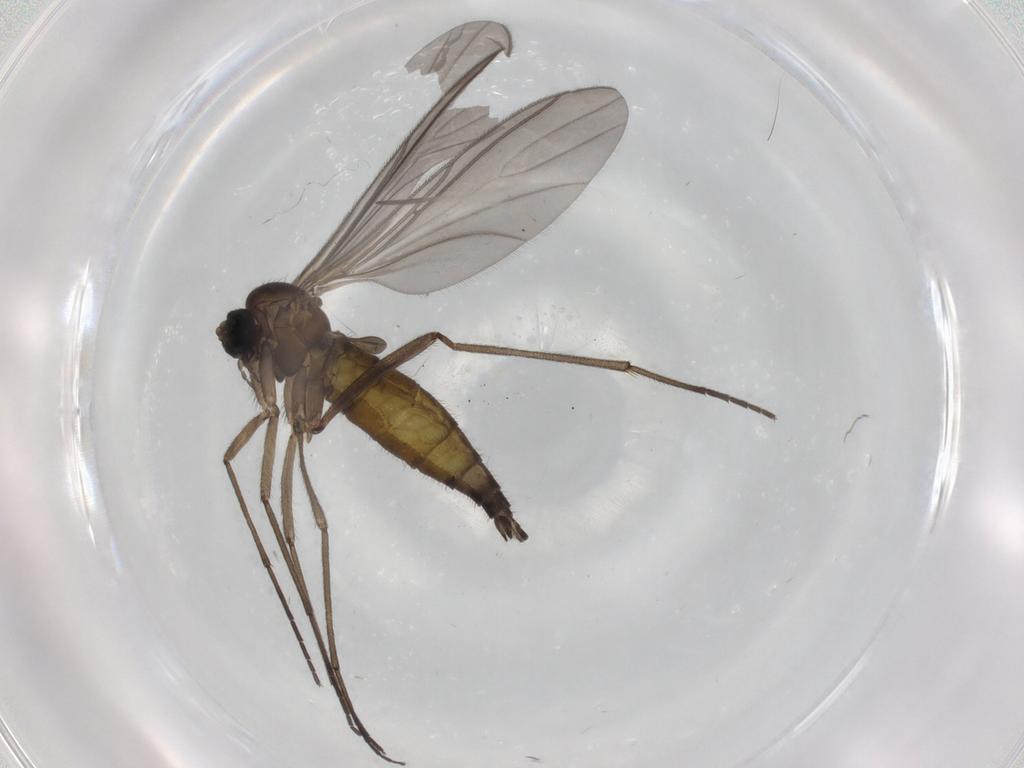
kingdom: Animalia
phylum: Arthropoda
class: Insecta
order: Diptera
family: Sciaridae
